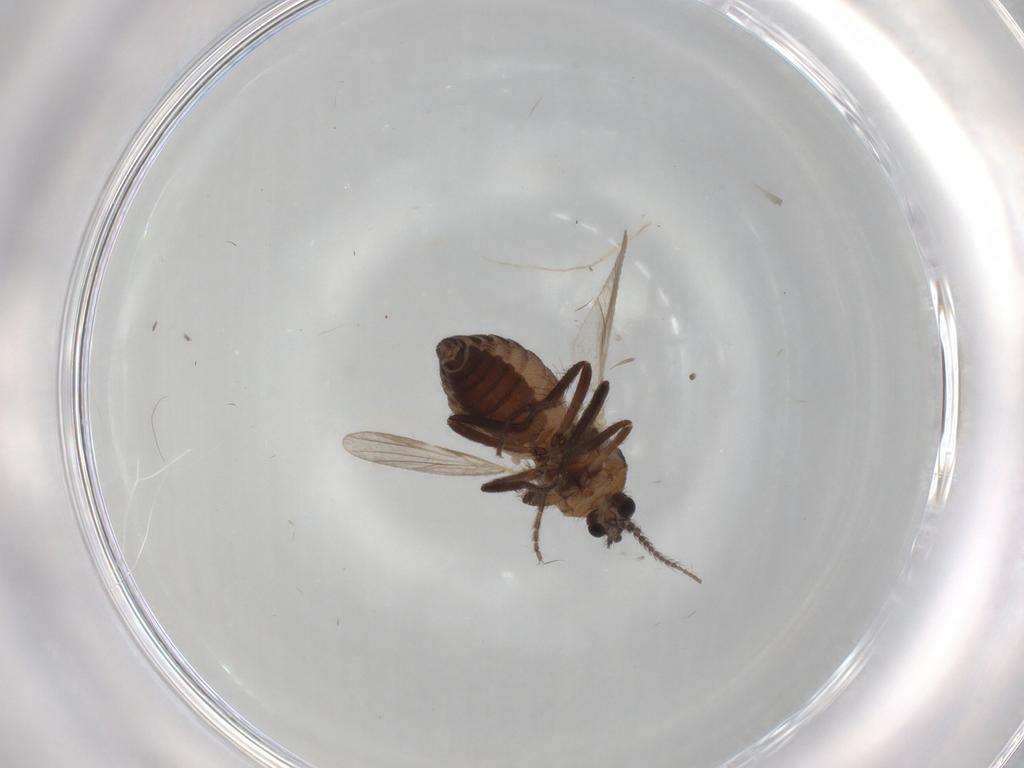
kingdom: Animalia
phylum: Arthropoda
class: Insecta
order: Diptera
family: Ceratopogonidae
